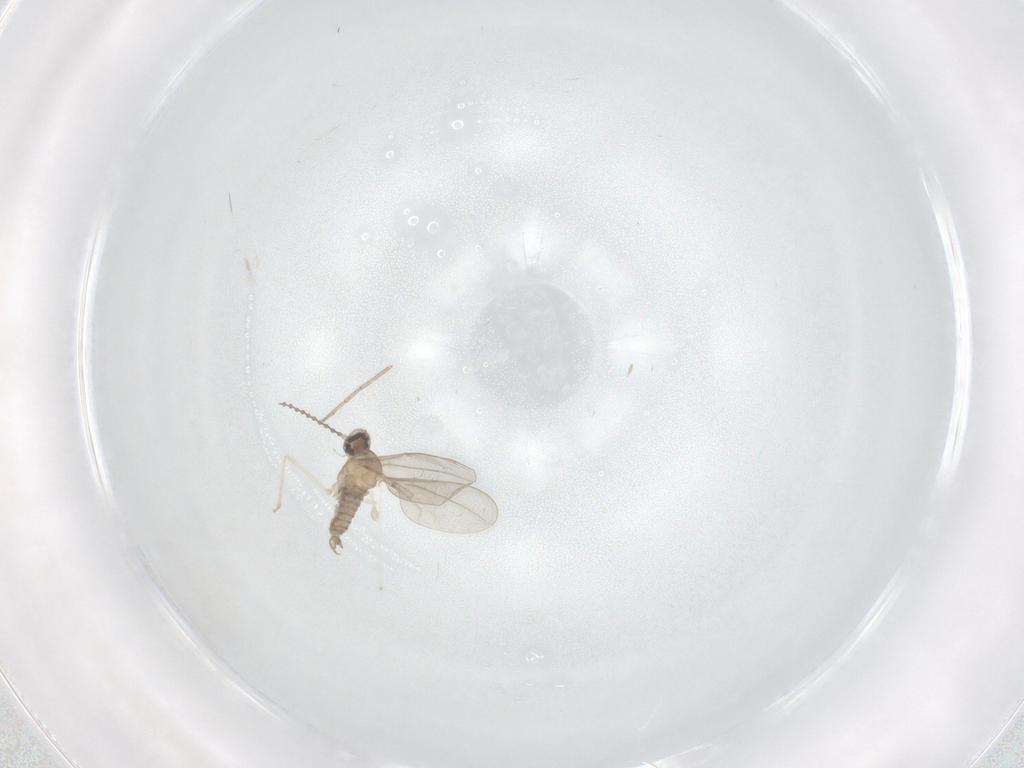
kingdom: Animalia
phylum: Arthropoda
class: Insecta
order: Diptera
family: Cecidomyiidae
